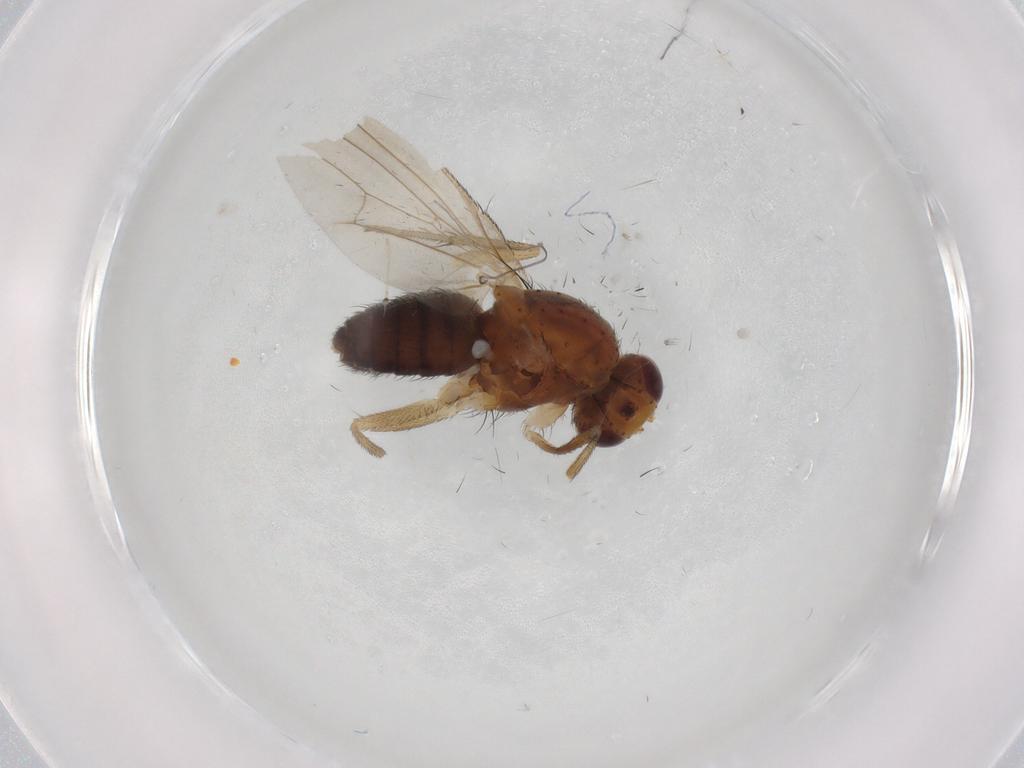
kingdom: Animalia
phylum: Arthropoda
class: Insecta
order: Diptera
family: Heleomyzidae
